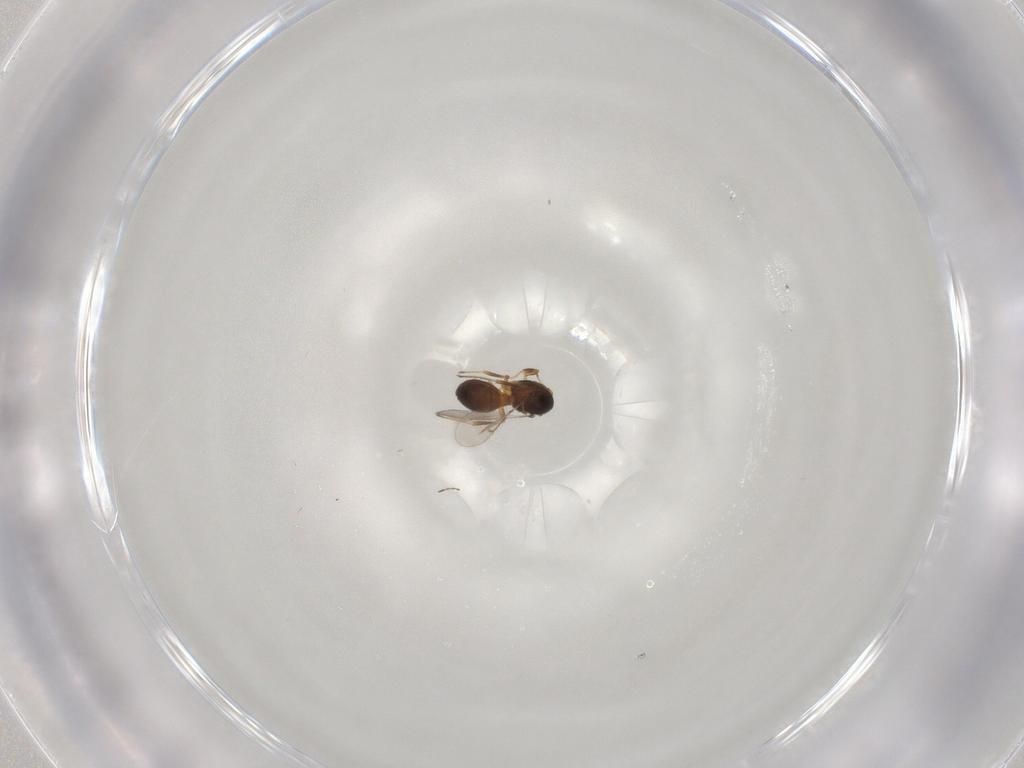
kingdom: Animalia
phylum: Arthropoda
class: Insecta
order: Hymenoptera
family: Scelionidae
